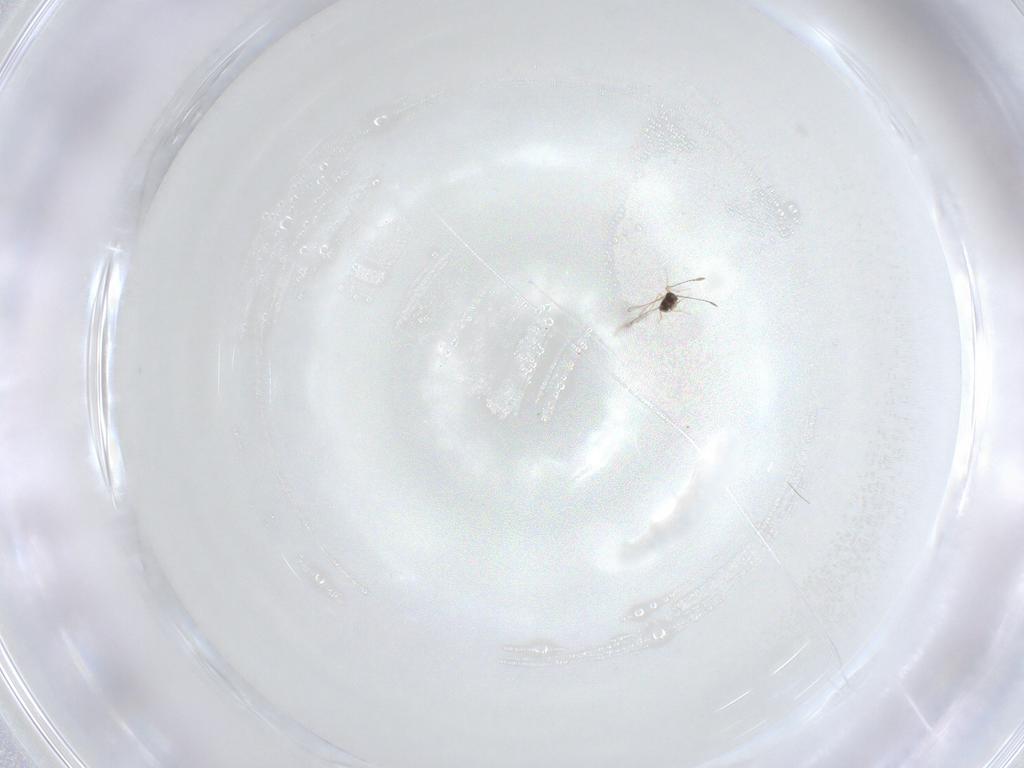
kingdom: Animalia
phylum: Arthropoda
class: Insecta
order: Diptera
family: Cecidomyiidae
